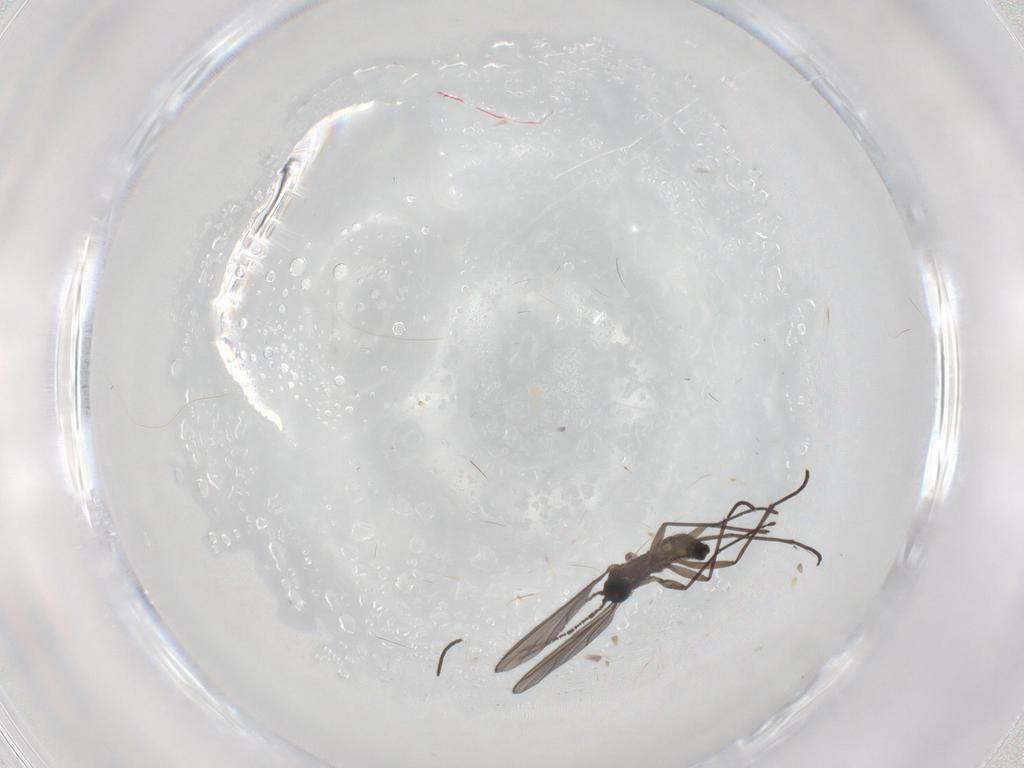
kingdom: Animalia
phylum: Arthropoda
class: Insecta
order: Diptera
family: Sciaridae
